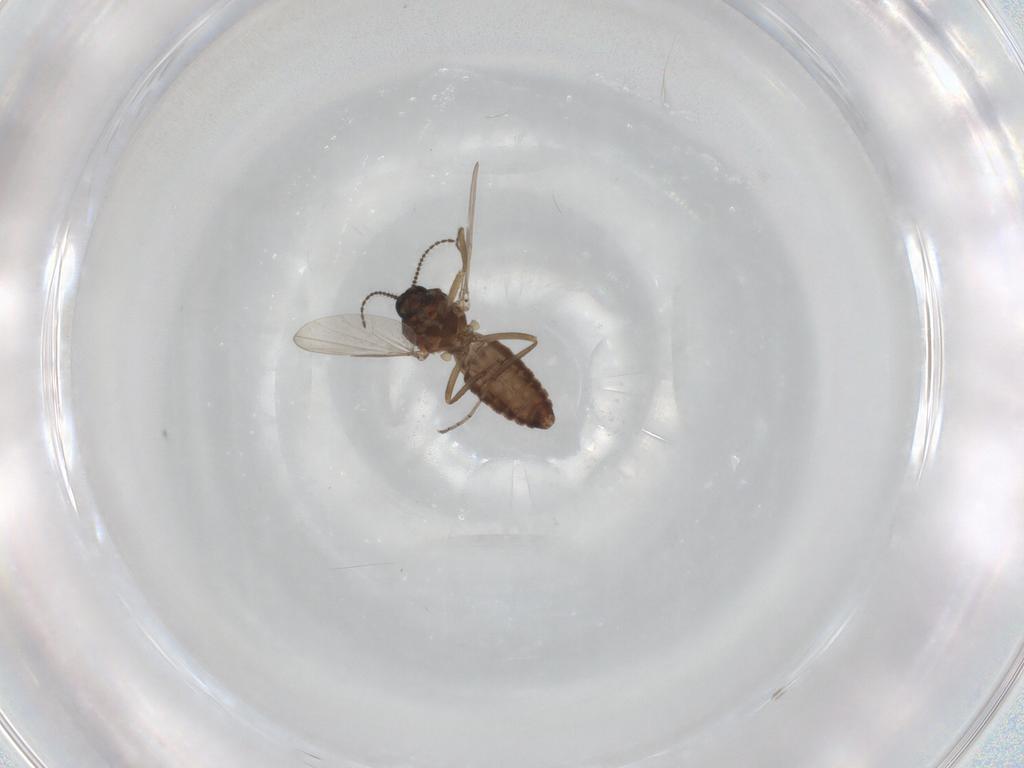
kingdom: Animalia
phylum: Arthropoda
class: Insecta
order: Diptera
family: Ceratopogonidae
